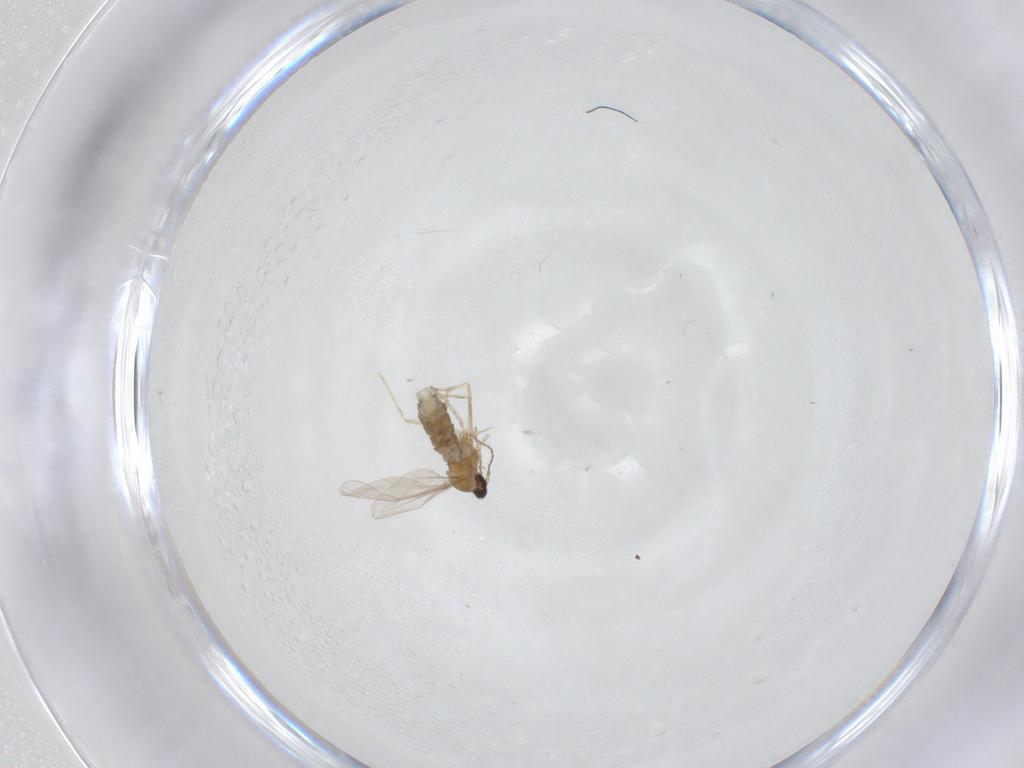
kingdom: Animalia
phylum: Arthropoda
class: Insecta
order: Diptera
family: Cecidomyiidae
